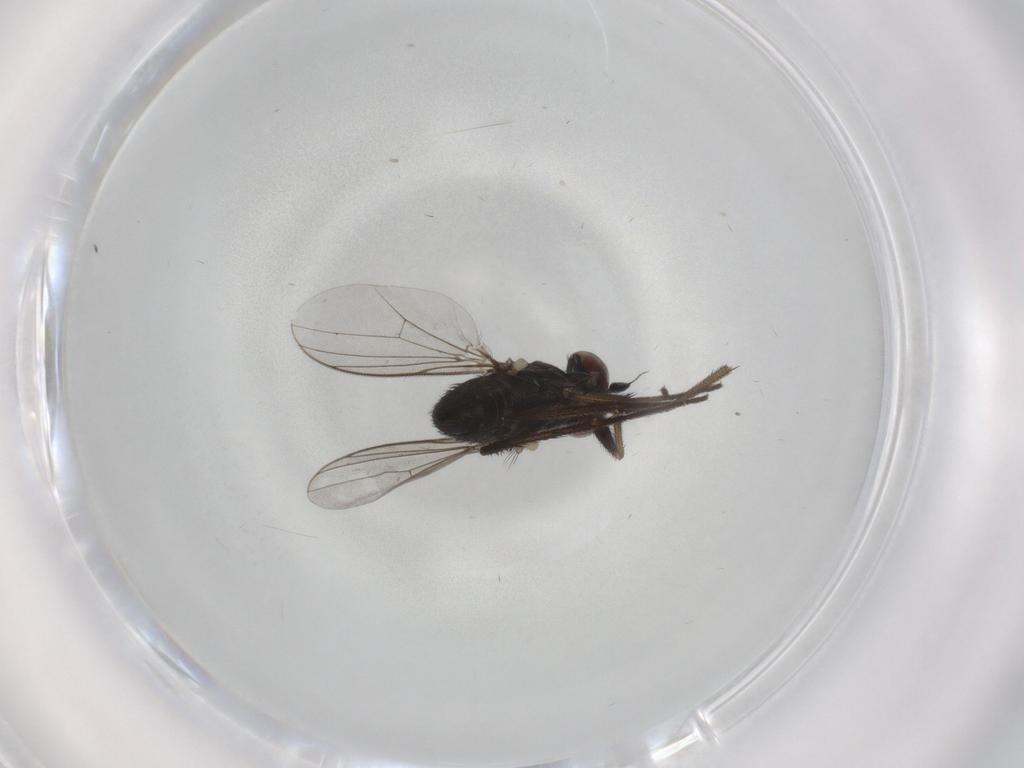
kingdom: Animalia
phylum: Arthropoda
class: Insecta
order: Diptera
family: Dolichopodidae
